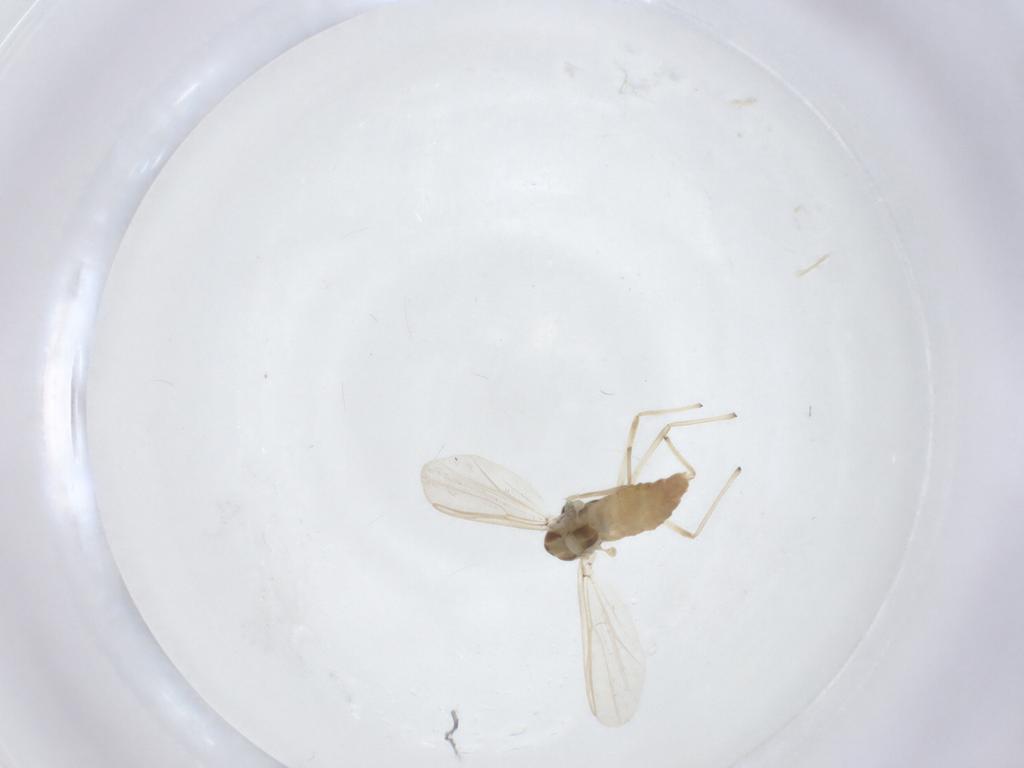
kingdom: Animalia
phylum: Arthropoda
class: Insecta
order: Diptera
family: Chironomidae
